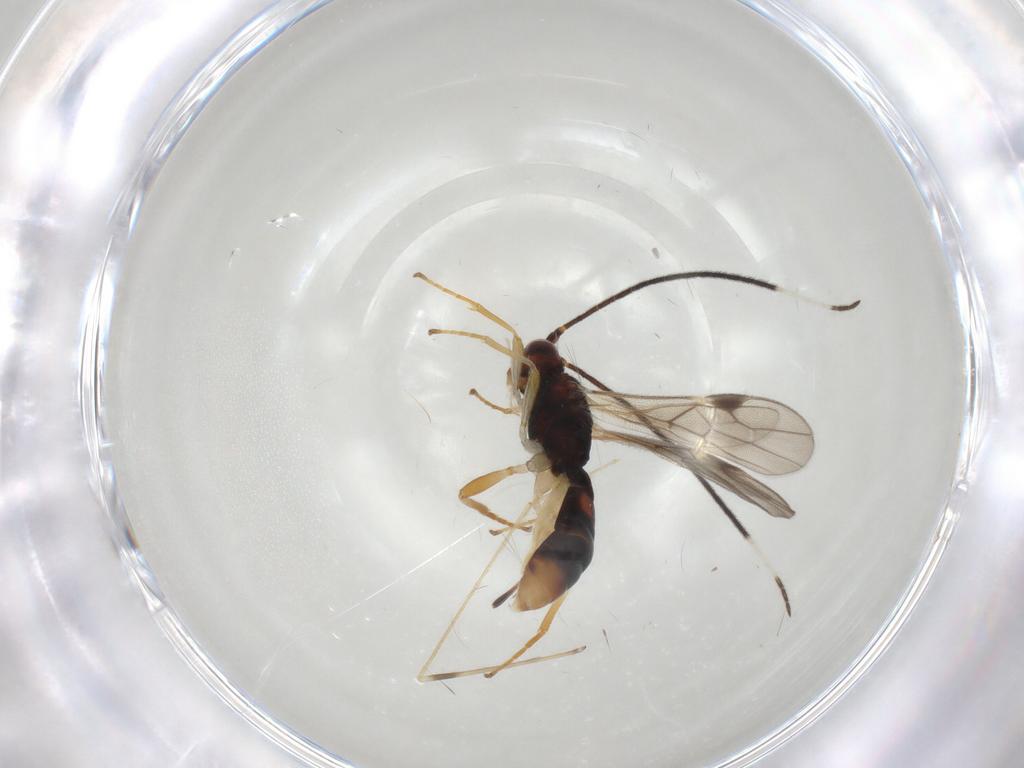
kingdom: Animalia
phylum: Arthropoda
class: Insecta
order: Hymenoptera
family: Braconidae
